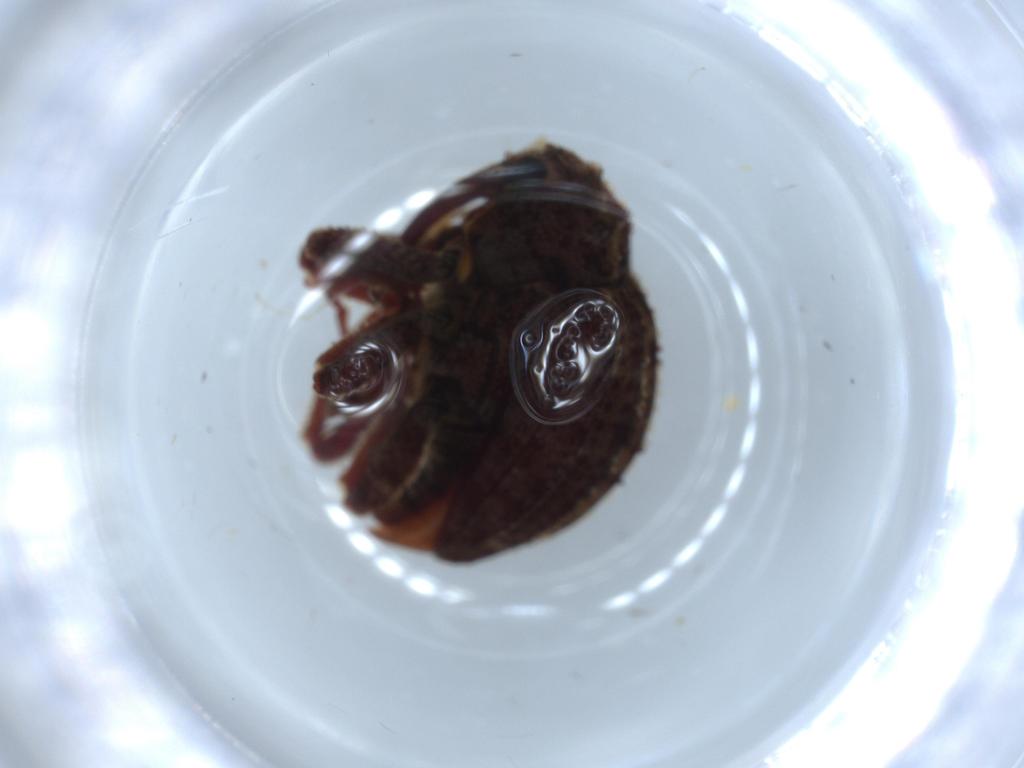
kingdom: Animalia
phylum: Arthropoda
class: Insecta
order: Coleoptera
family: Curculionidae
